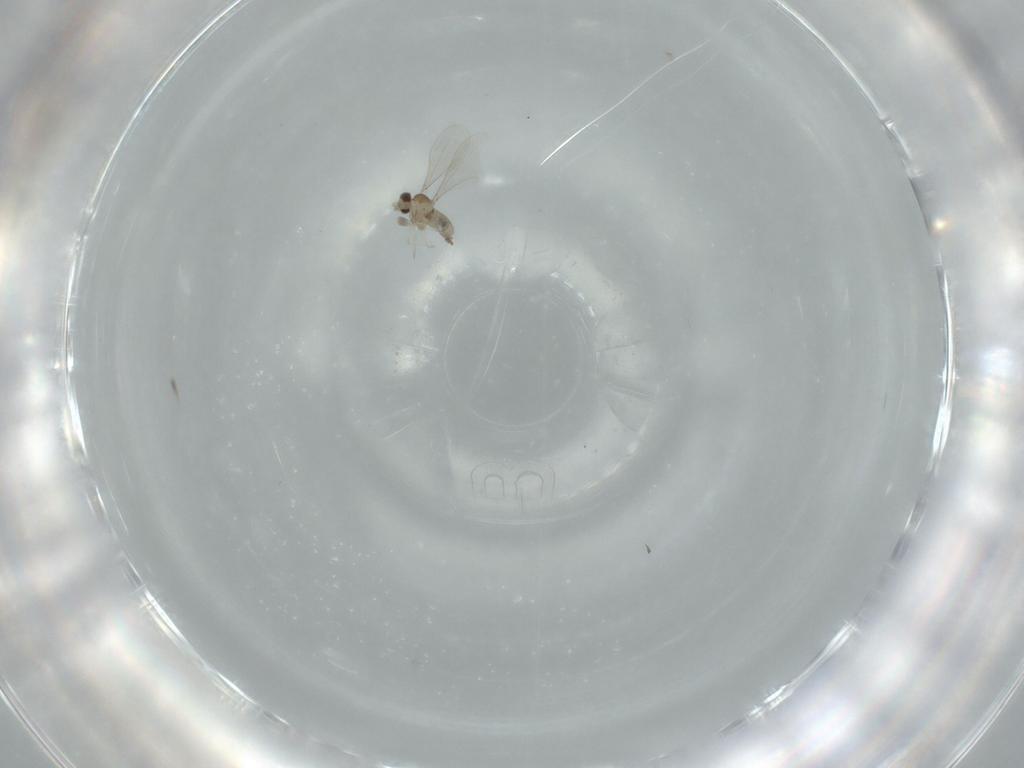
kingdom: Animalia
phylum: Arthropoda
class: Insecta
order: Diptera
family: Cecidomyiidae
